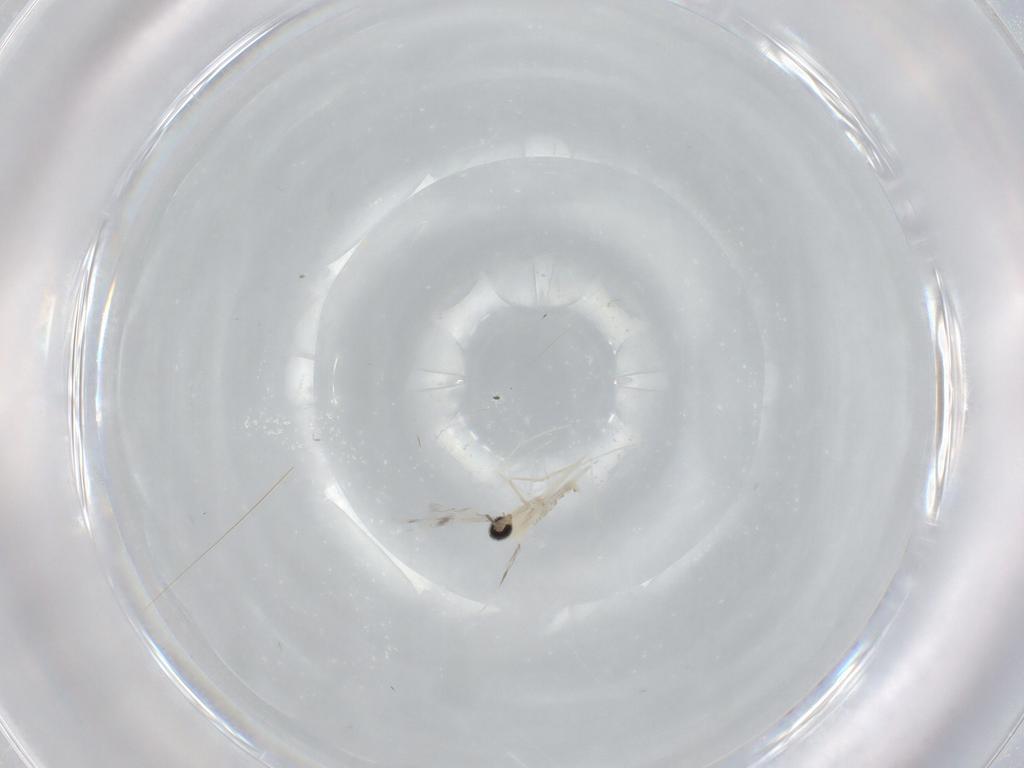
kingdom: Animalia
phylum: Arthropoda
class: Insecta
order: Diptera
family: Cecidomyiidae
